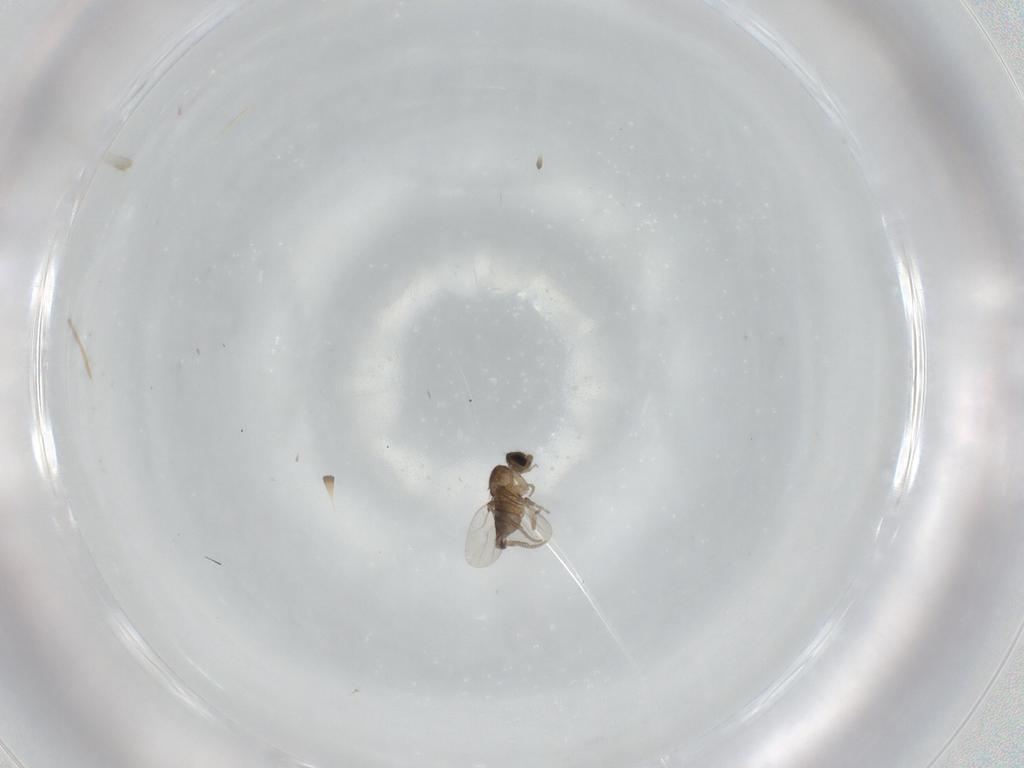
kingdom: Animalia
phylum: Arthropoda
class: Insecta
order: Diptera
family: Phoridae
